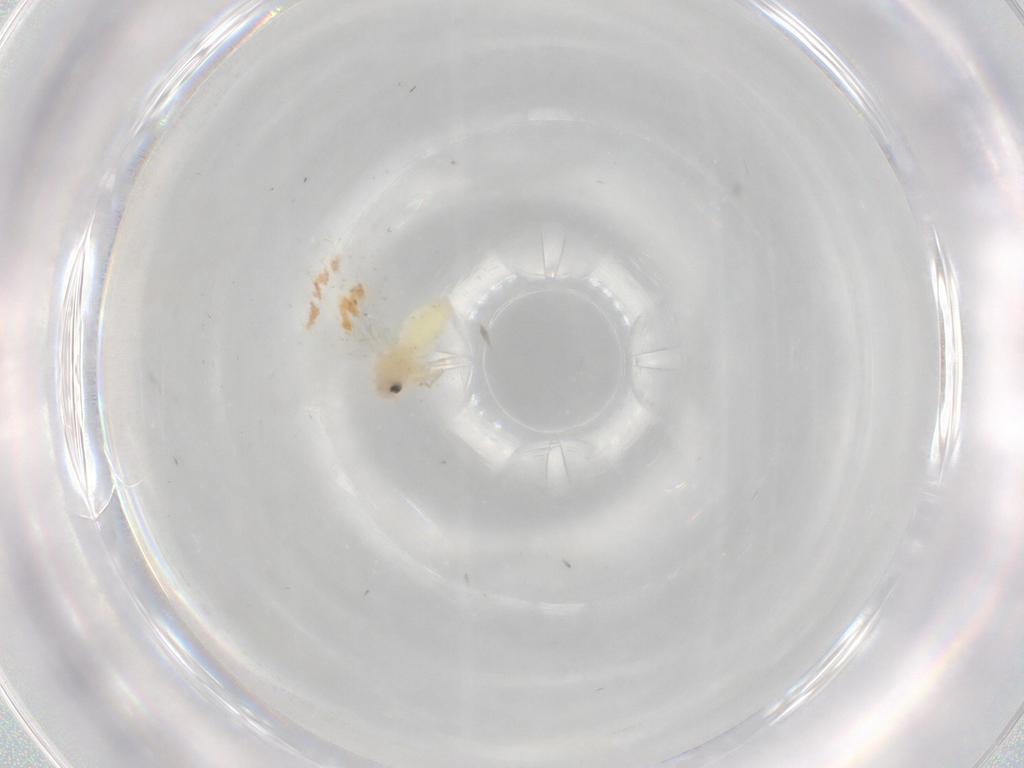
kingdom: Animalia
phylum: Arthropoda
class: Insecta
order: Hemiptera
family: Aleyrodidae
